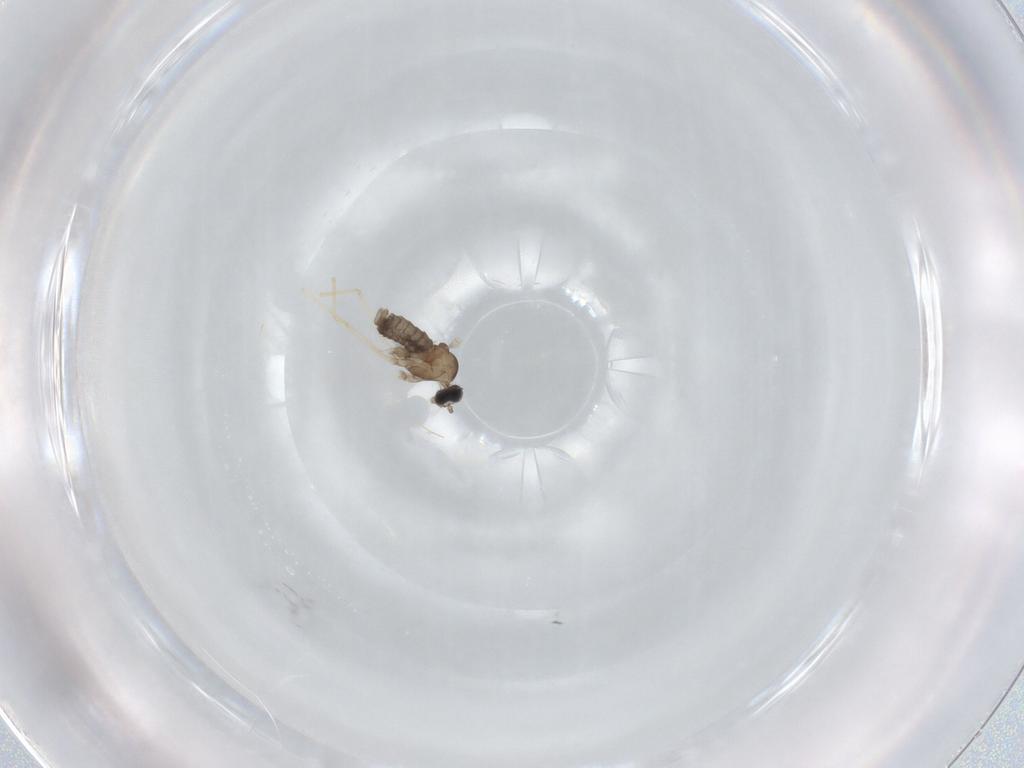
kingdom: Animalia
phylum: Arthropoda
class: Insecta
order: Diptera
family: Cecidomyiidae
